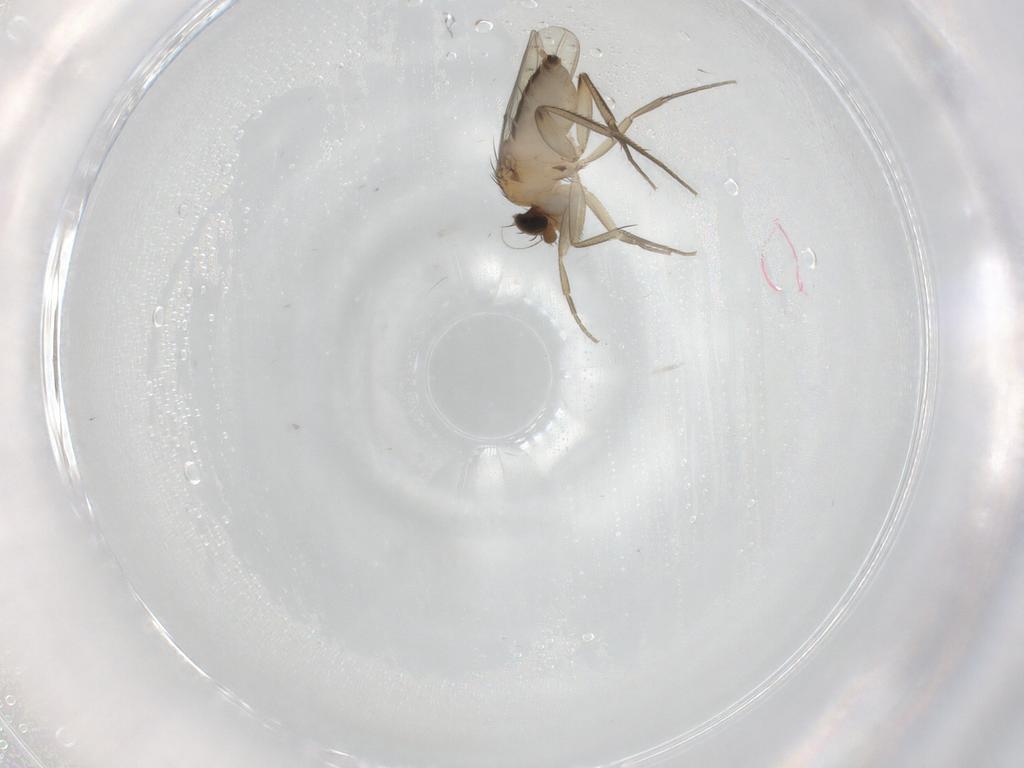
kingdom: Animalia
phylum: Arthropoda
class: Insecta
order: Diptera
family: Phoridae
